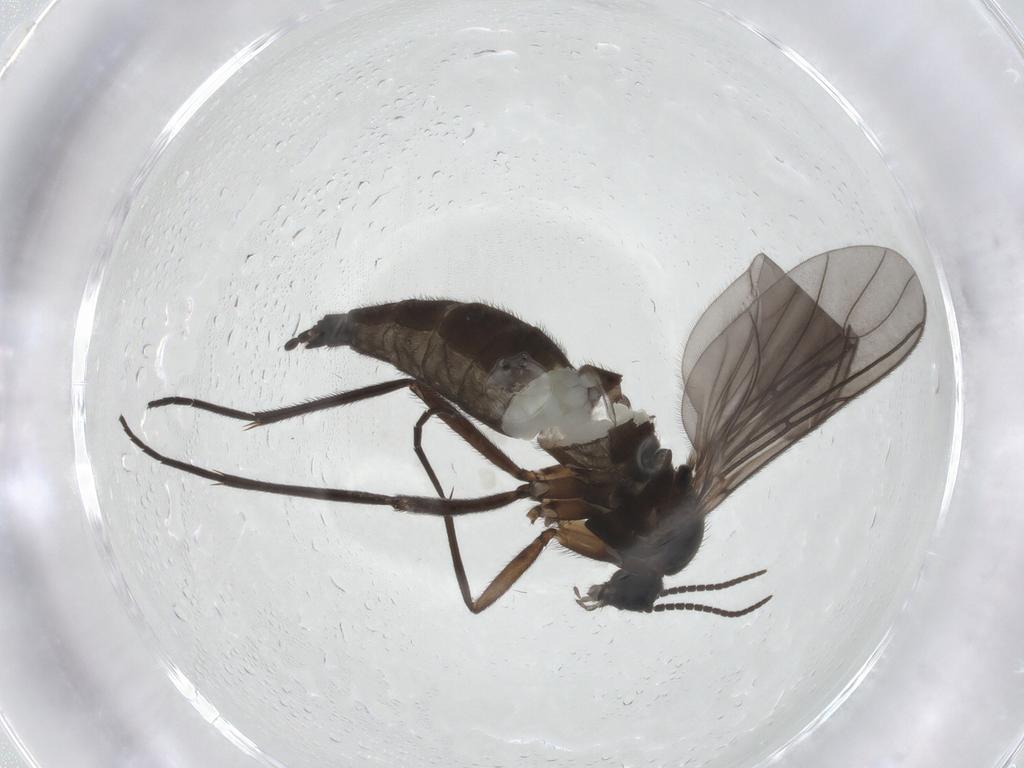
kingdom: Animalia
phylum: Arthropoda
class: Insecta
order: Diptera
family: Sciaridae
